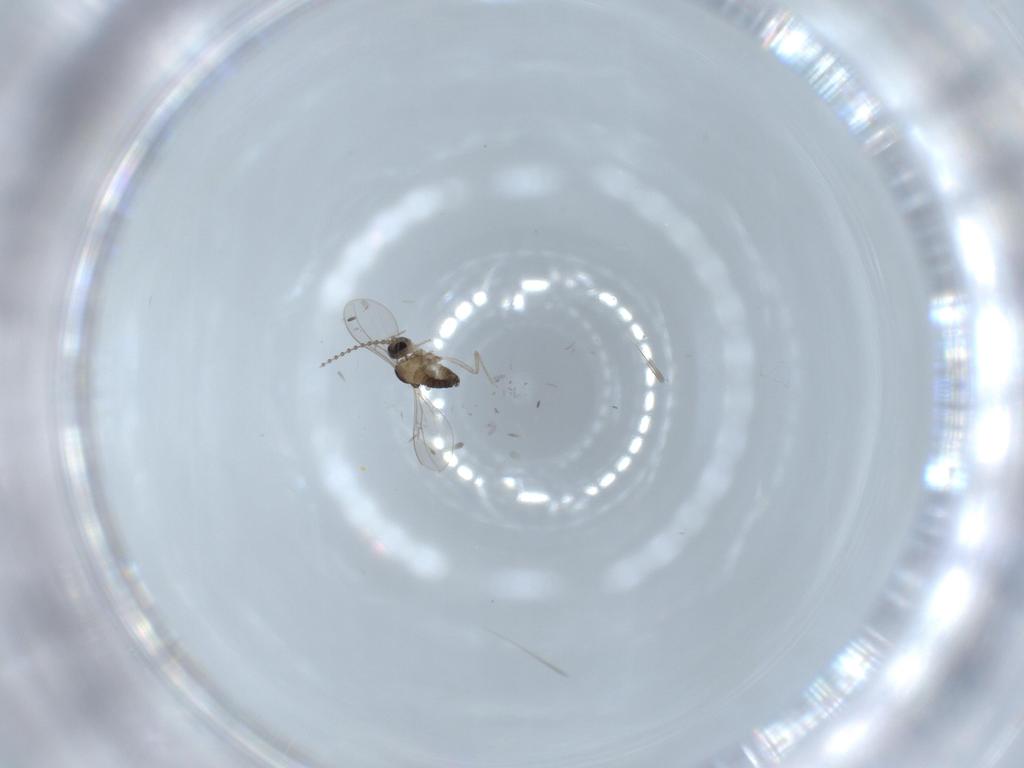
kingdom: Animalia
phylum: Arthropoda
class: Insecta
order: Diptera
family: Cecidomyiidae
